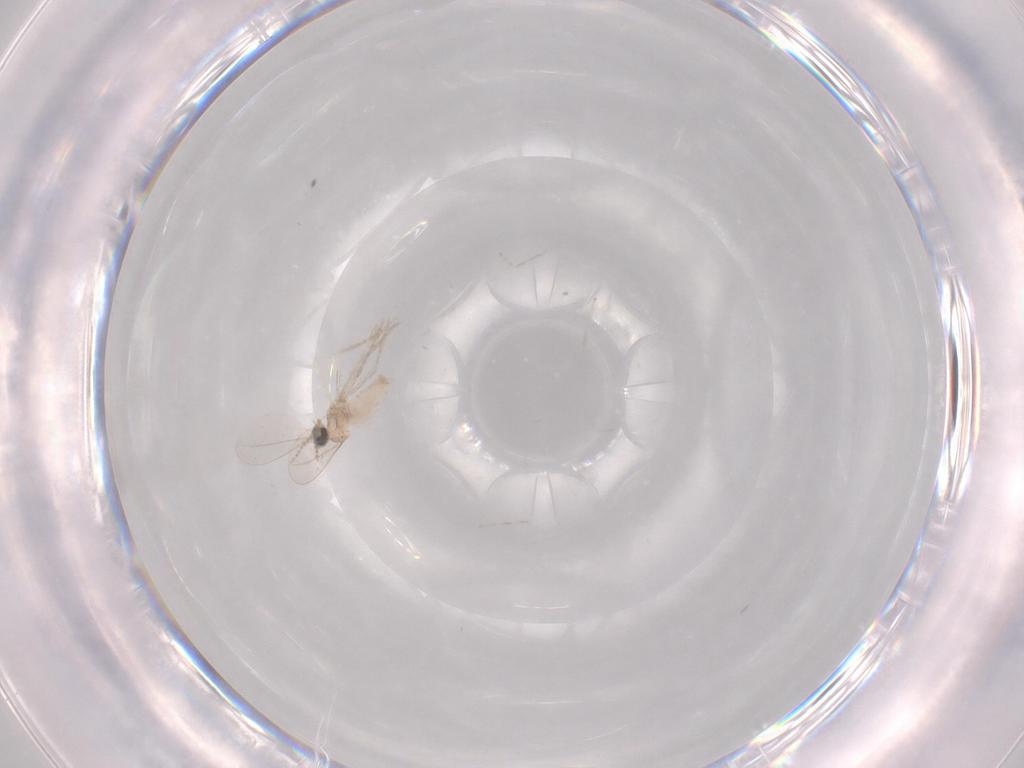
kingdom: Animalia
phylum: Arthropoda
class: Insecta
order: Diptera
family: Cecidomyiidae
